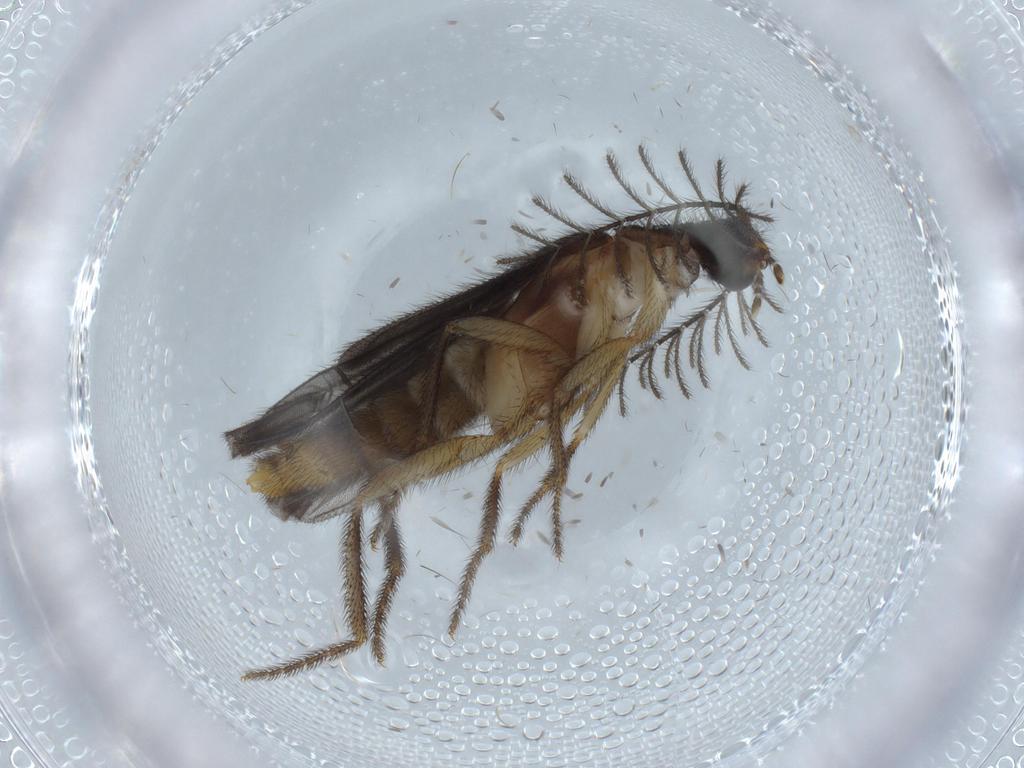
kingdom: Animalia
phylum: Arthropoda
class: Insecta
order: Coleoptera
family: Phengodidae
